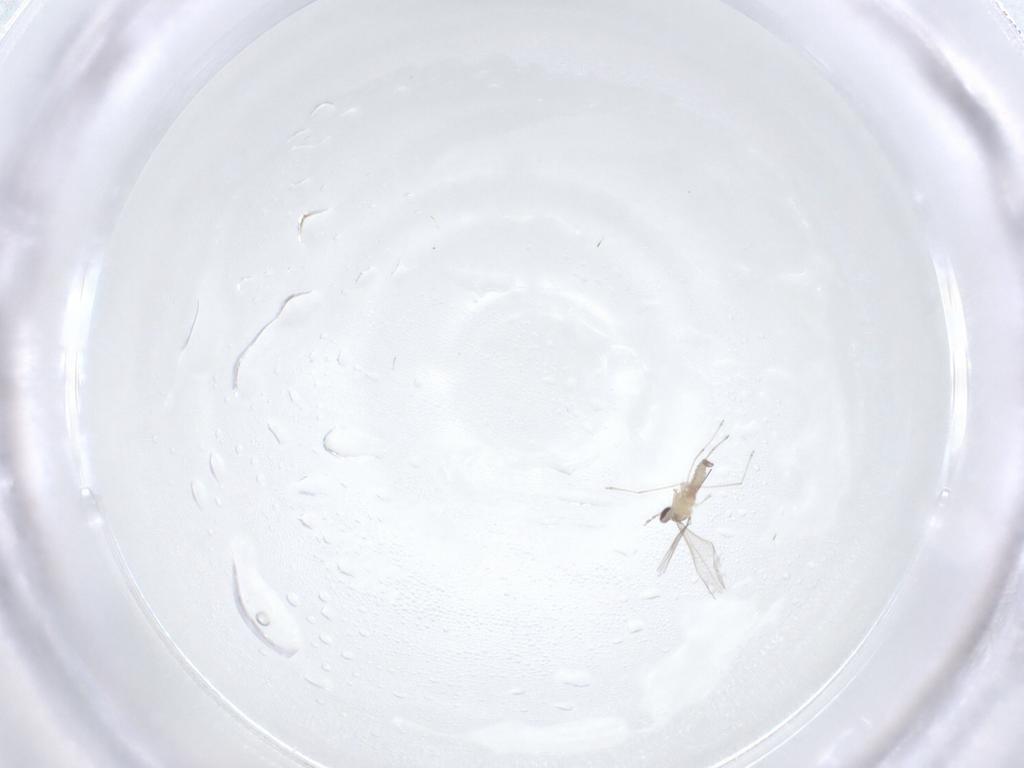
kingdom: Animalia
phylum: Arthropoda
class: Insecta
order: Diptera
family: Cecidomyiidae
